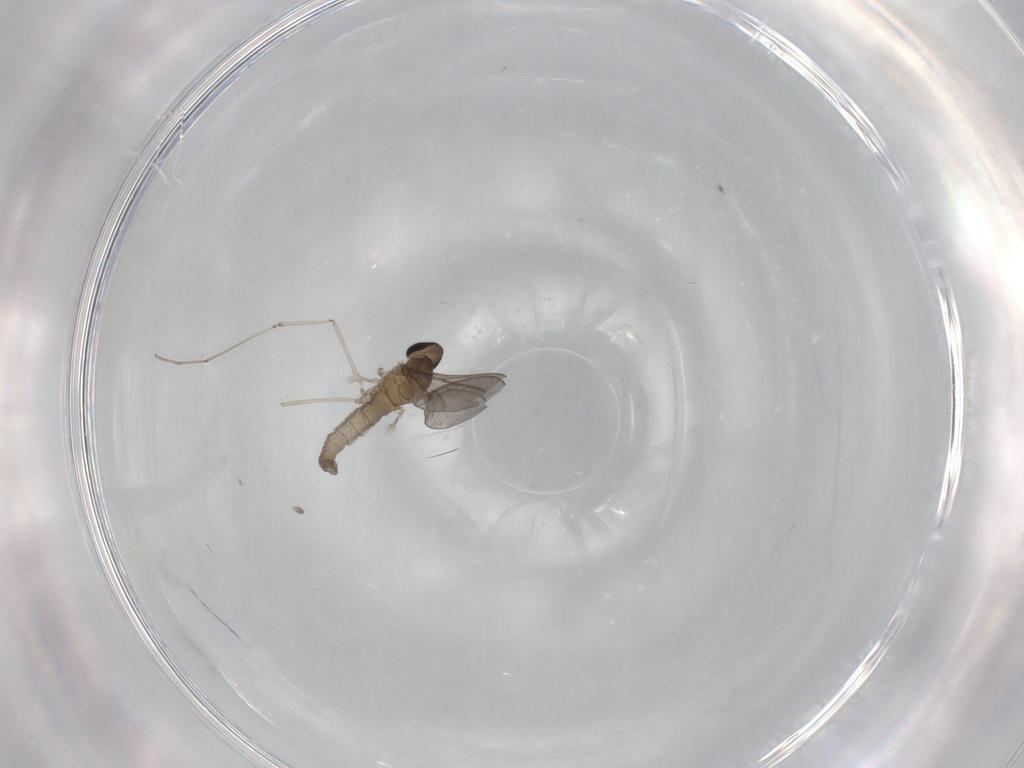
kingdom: Animalia
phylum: Arthropoda
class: Insecta
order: Diptera
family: Cecidomyiidae
